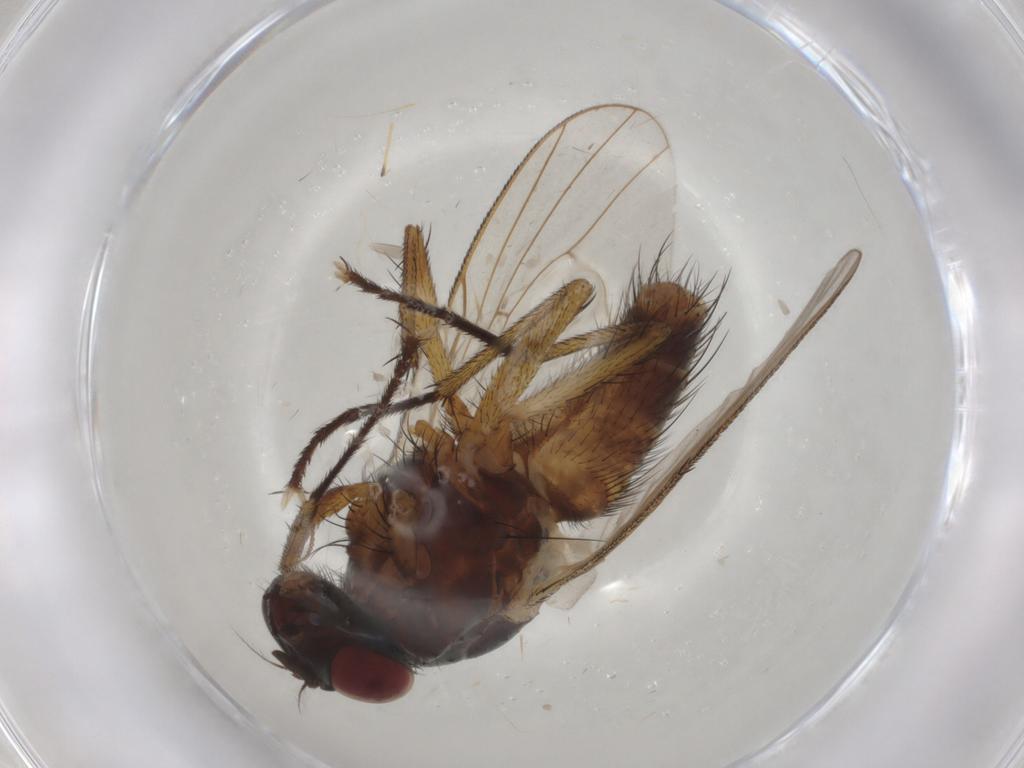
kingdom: Animalia
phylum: Arthropoda
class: Insecta
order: Diptera
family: Muscidae
